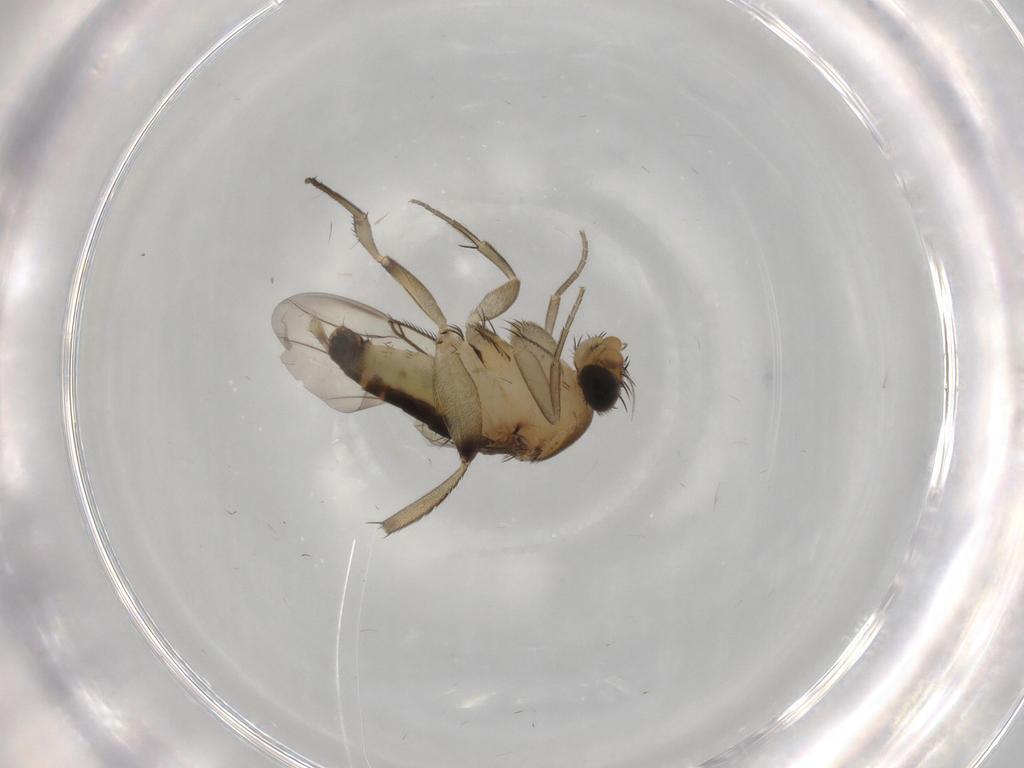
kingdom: Animalia
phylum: Arthropoda
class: Insecta
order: Diptera
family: Phoridae
